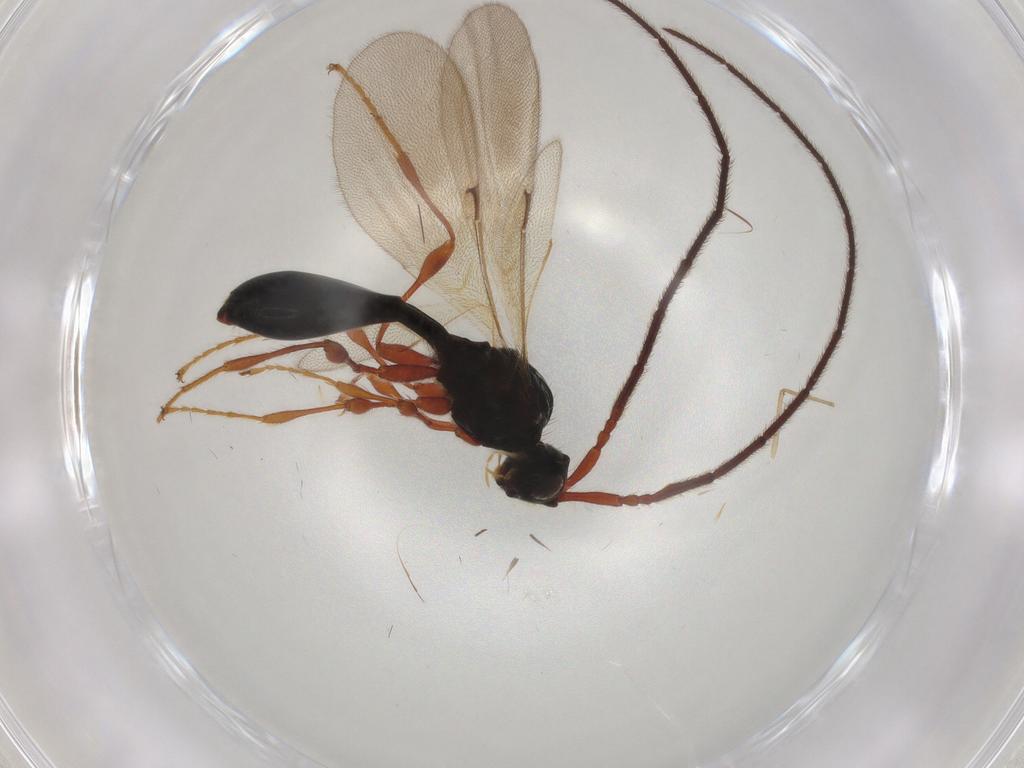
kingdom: Animalia
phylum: Arthropoda
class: Insecta
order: Hymenoptera
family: Diapriidae
